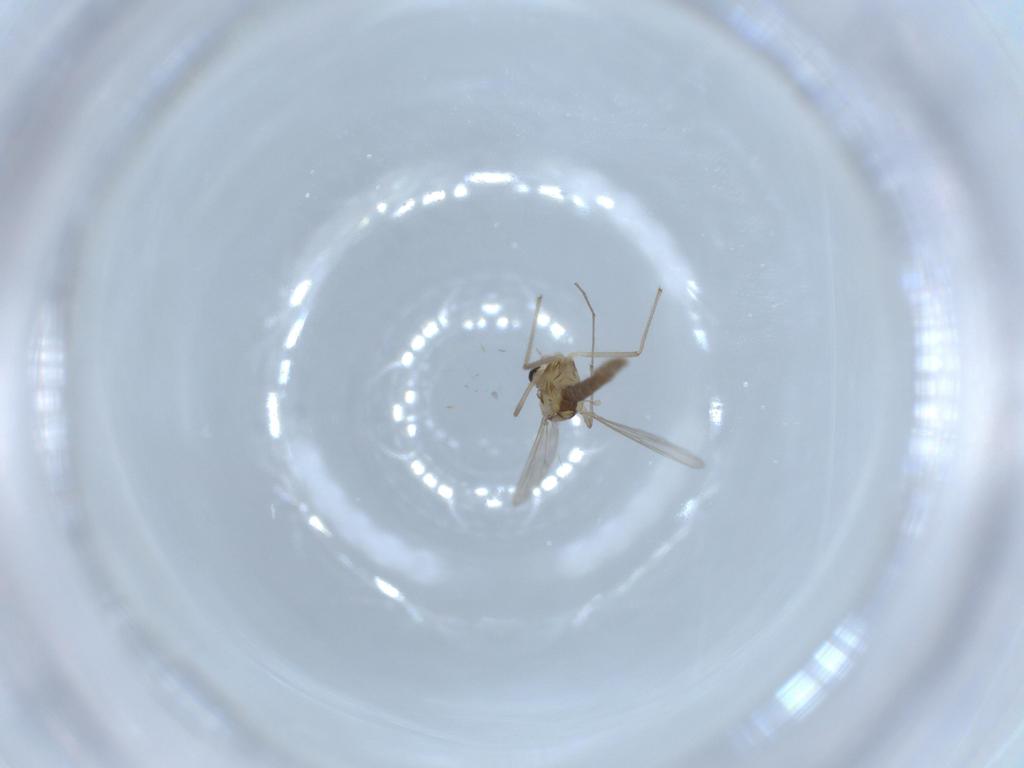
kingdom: Animalia
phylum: Arthropoda
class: Insecta
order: Diptera
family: Chironomidae
